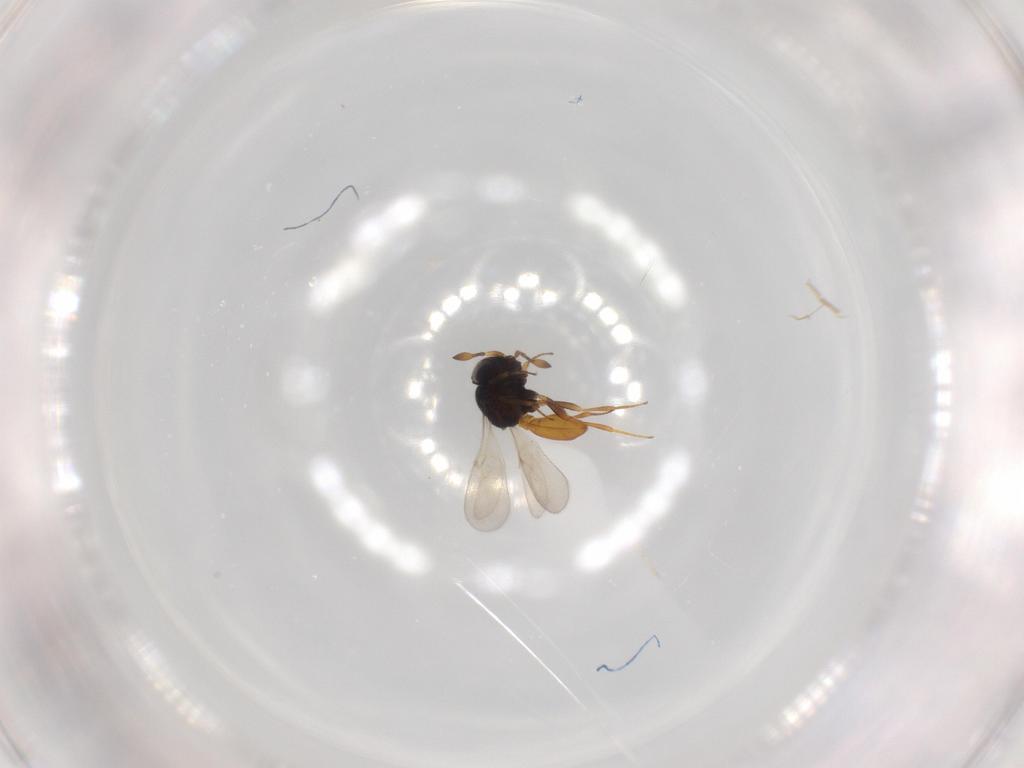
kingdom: Animalia
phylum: Arthropoda
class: Insecta
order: Hymenoptera
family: Scelionidae
